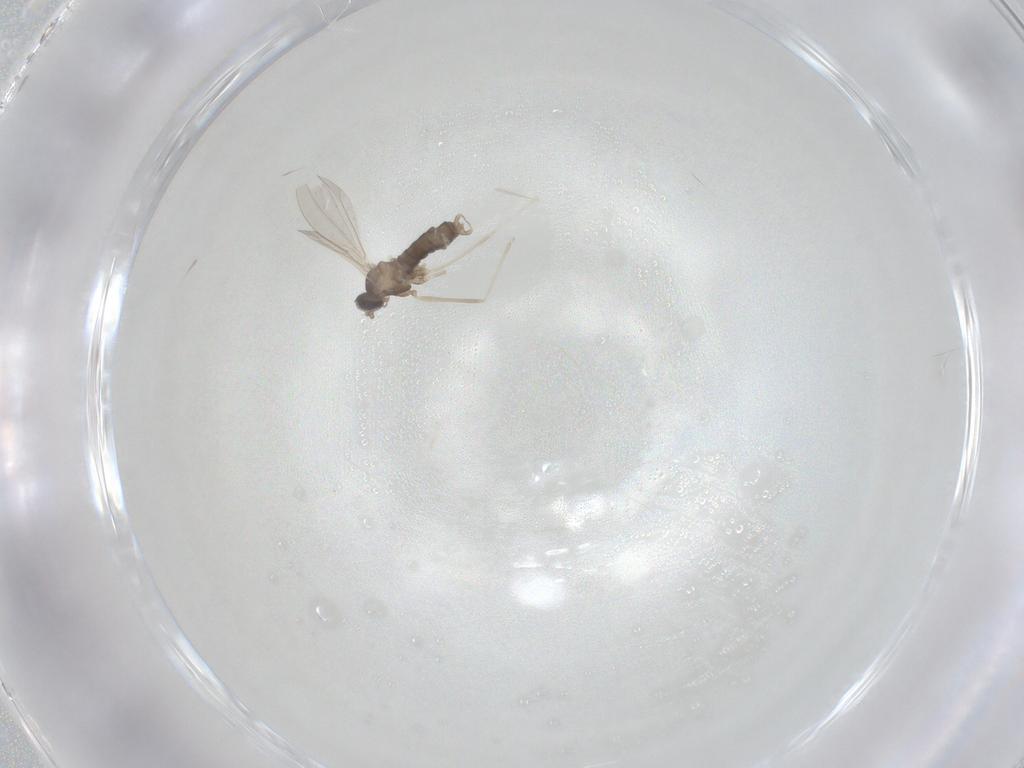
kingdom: Animalia
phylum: Arthropoda
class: Insecta
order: Diptera
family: Cecidomyiidae
